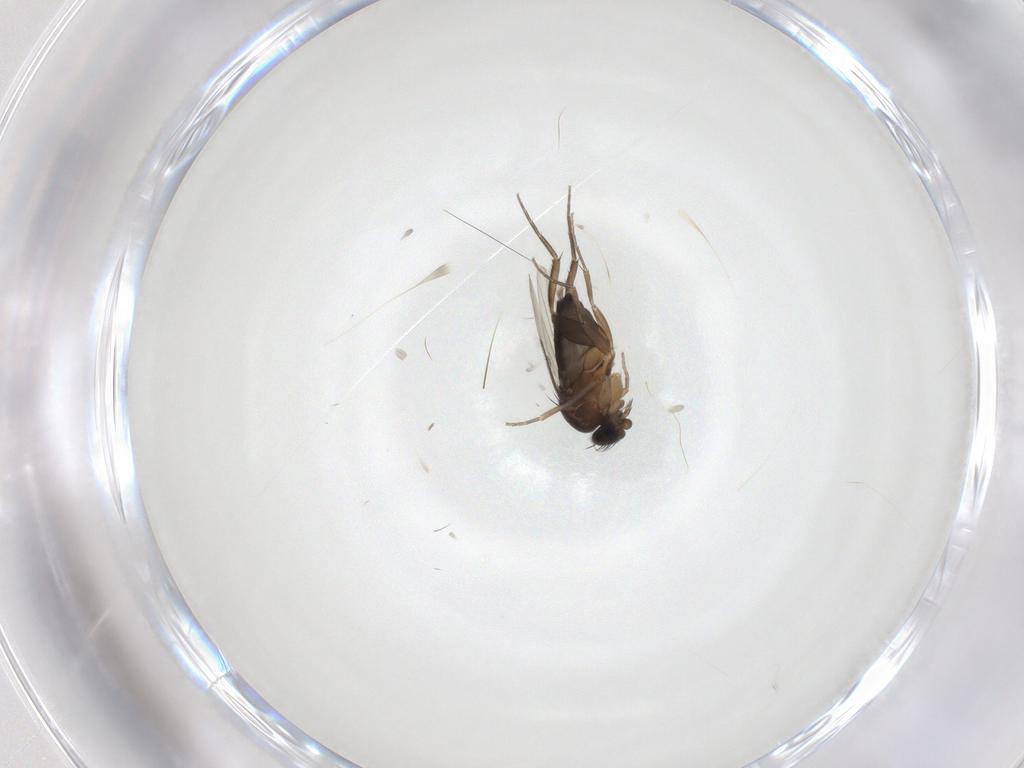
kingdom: Animalia
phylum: Arthropoda
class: Insecta
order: Diptera
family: Phoridae
